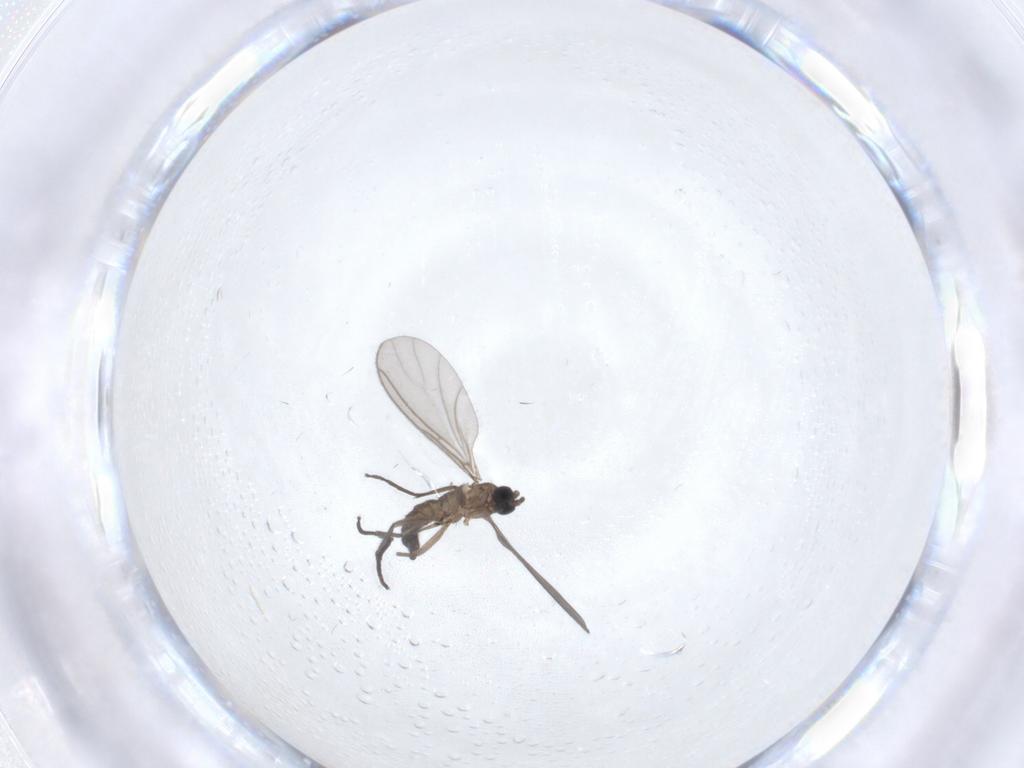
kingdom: Animalia
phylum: Arthropoda
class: Insecta
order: Diptera
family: Sciaridae
